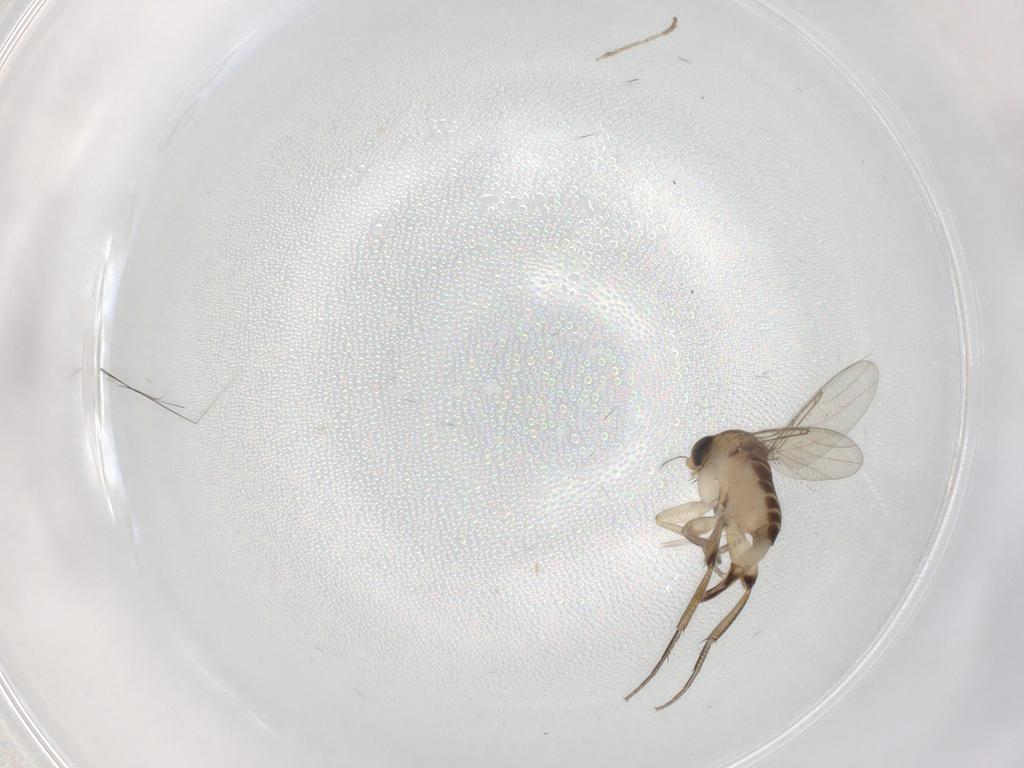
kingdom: Animalia
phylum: Arthropoda
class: Insecta
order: Diptera
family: Phoridae
